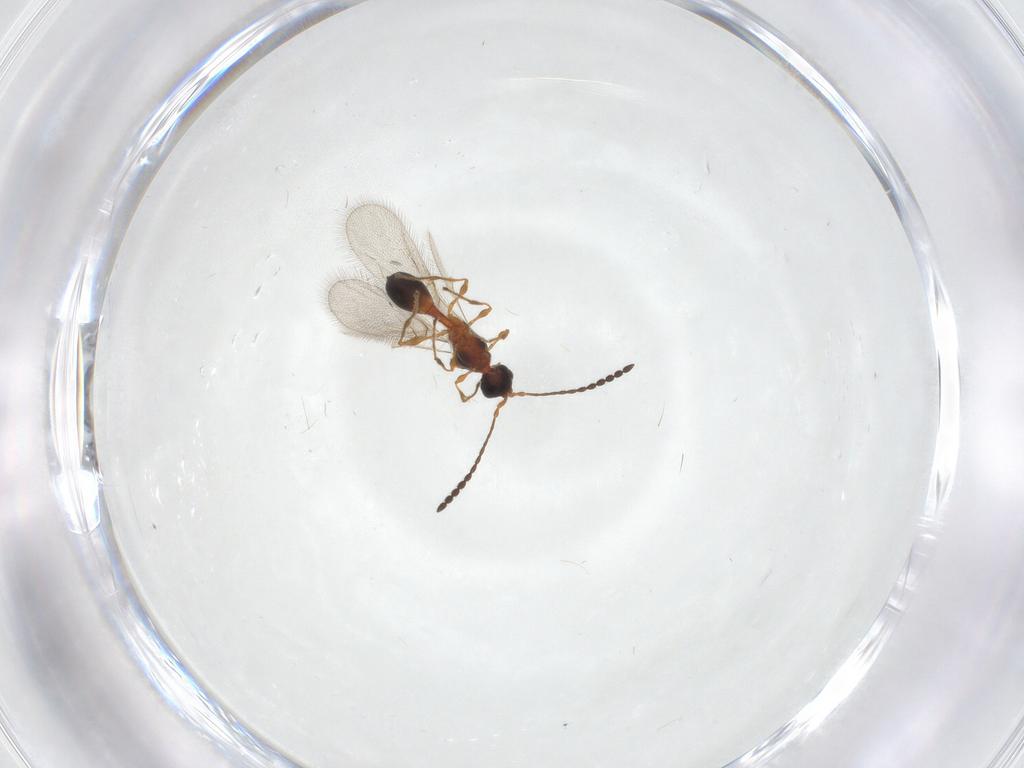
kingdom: Animalia
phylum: Arthropoda
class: Insecta
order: Hymenoptera
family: Diapriidae
